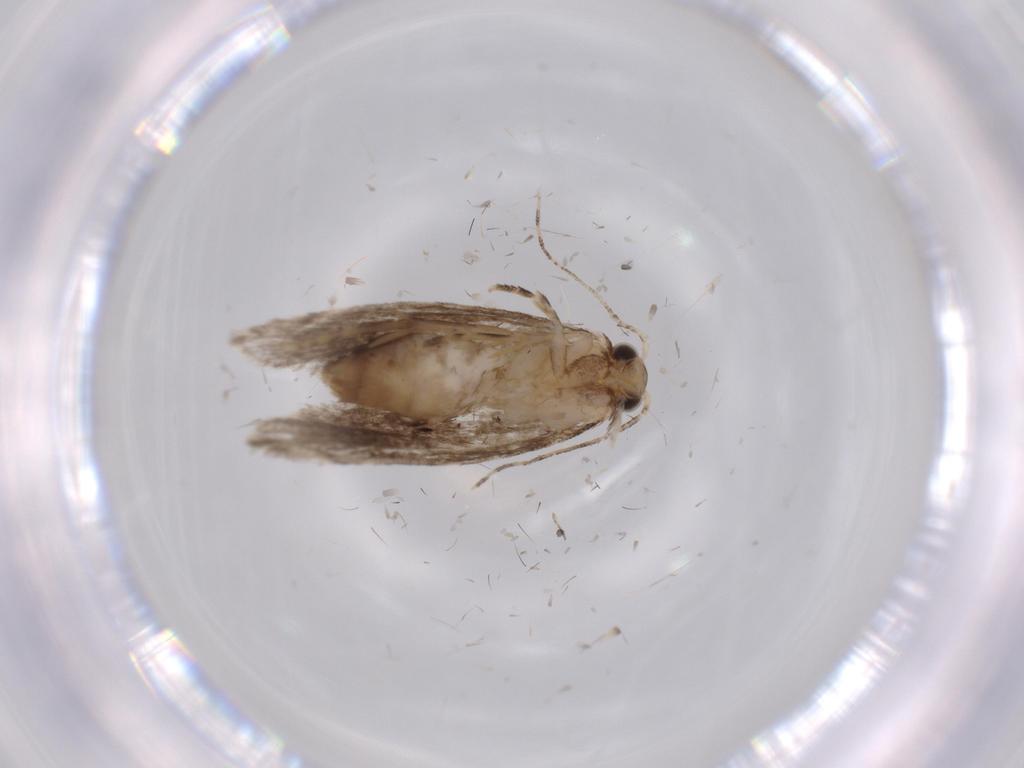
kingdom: Animalia
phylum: Arthropoda
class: Insecta
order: Lepidoptera
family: Tineidae
